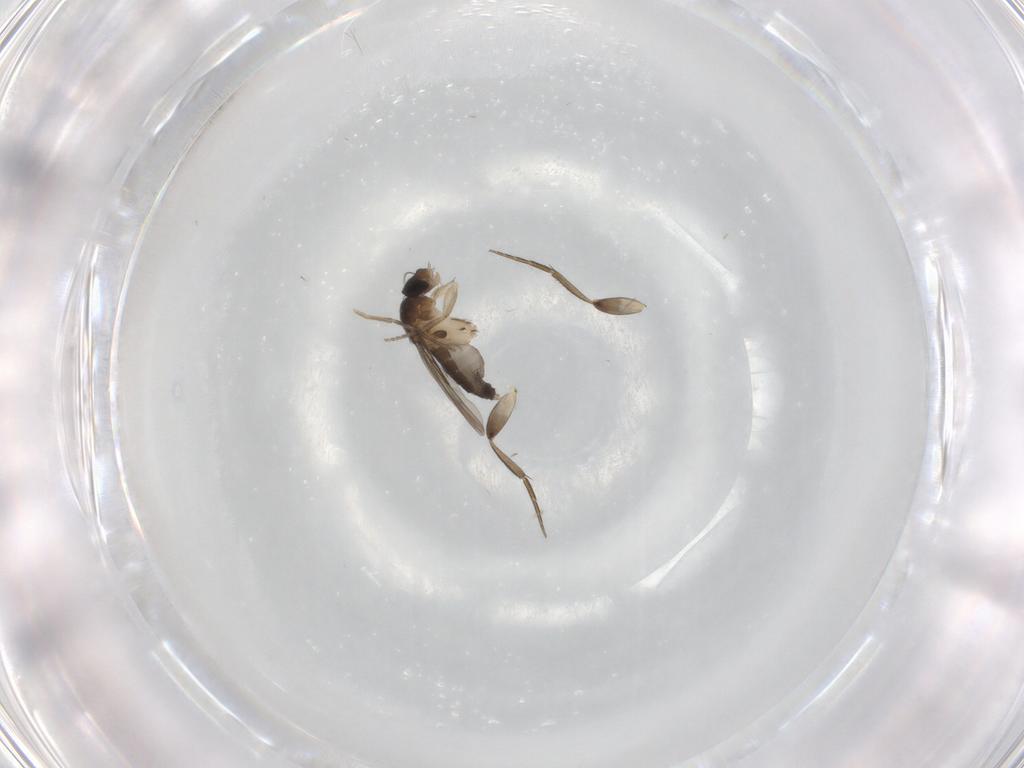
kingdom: Animalia
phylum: Arthropoda
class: Insecta
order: Diptera
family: Phoridae
